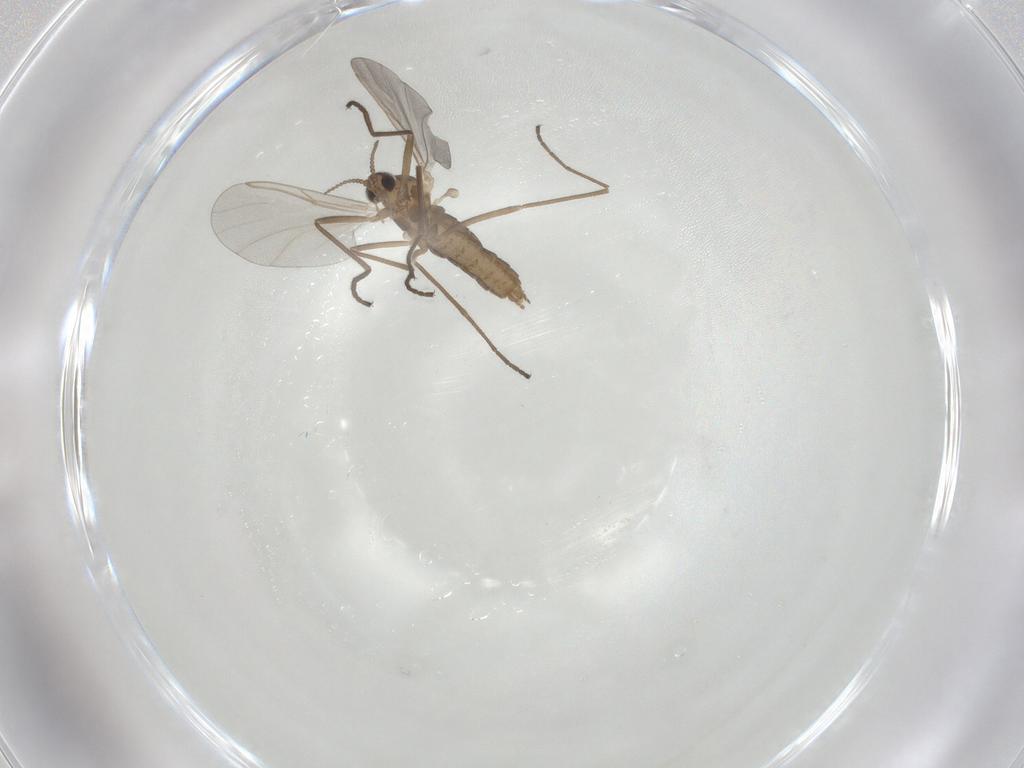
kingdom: Animalia
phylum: Arthropoda
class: Insecta
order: Diptera
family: Cecidomyiidae
